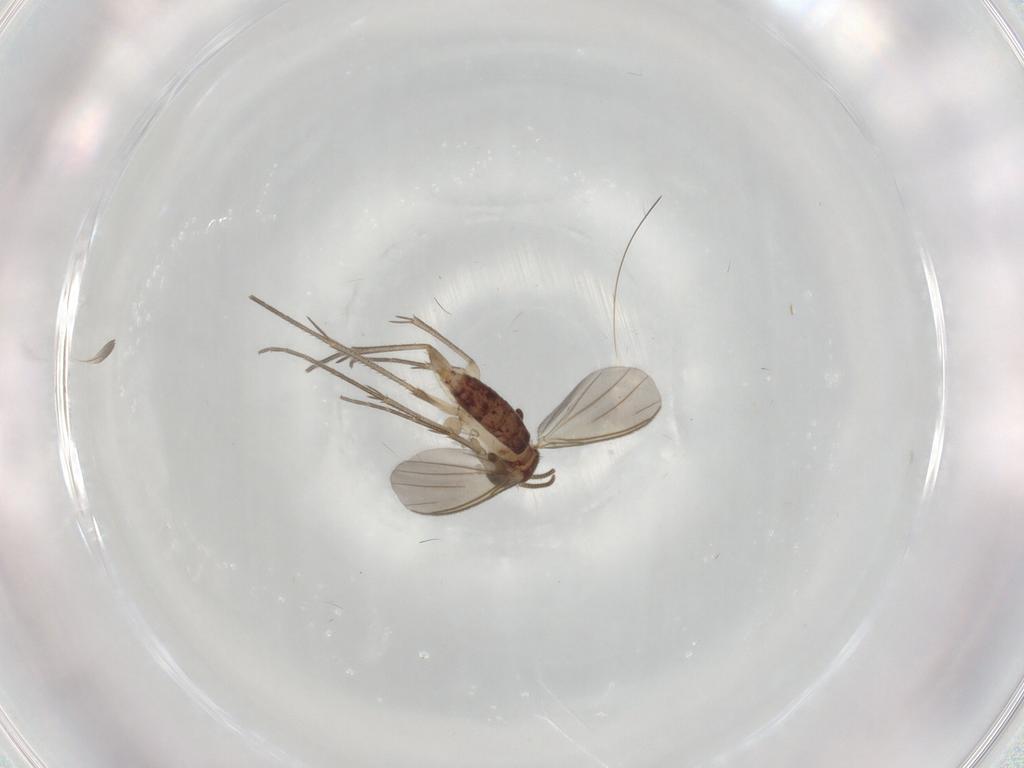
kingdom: Animalia
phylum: Arthropoda
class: Insecta
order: Diptera
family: Mycetophilidae
